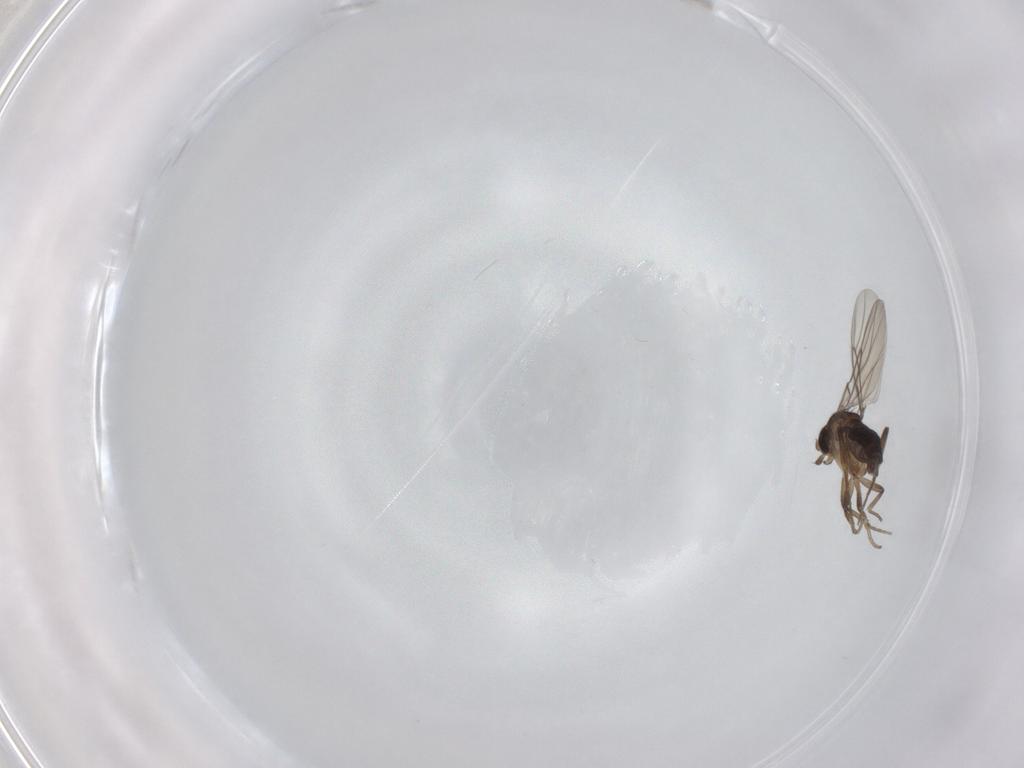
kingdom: Animalia
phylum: Arthropoda
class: Insecta
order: Diptera
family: Phoridae
